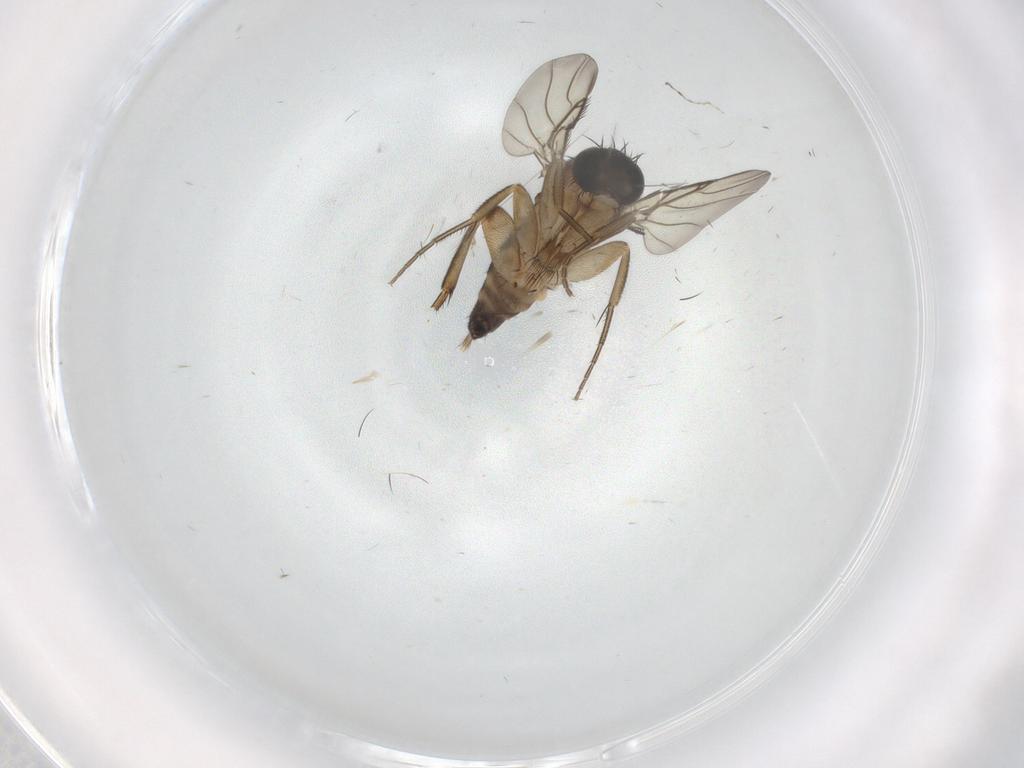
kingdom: Animalia
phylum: Arthropoda
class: Insecta
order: Diptera
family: Phoridae
